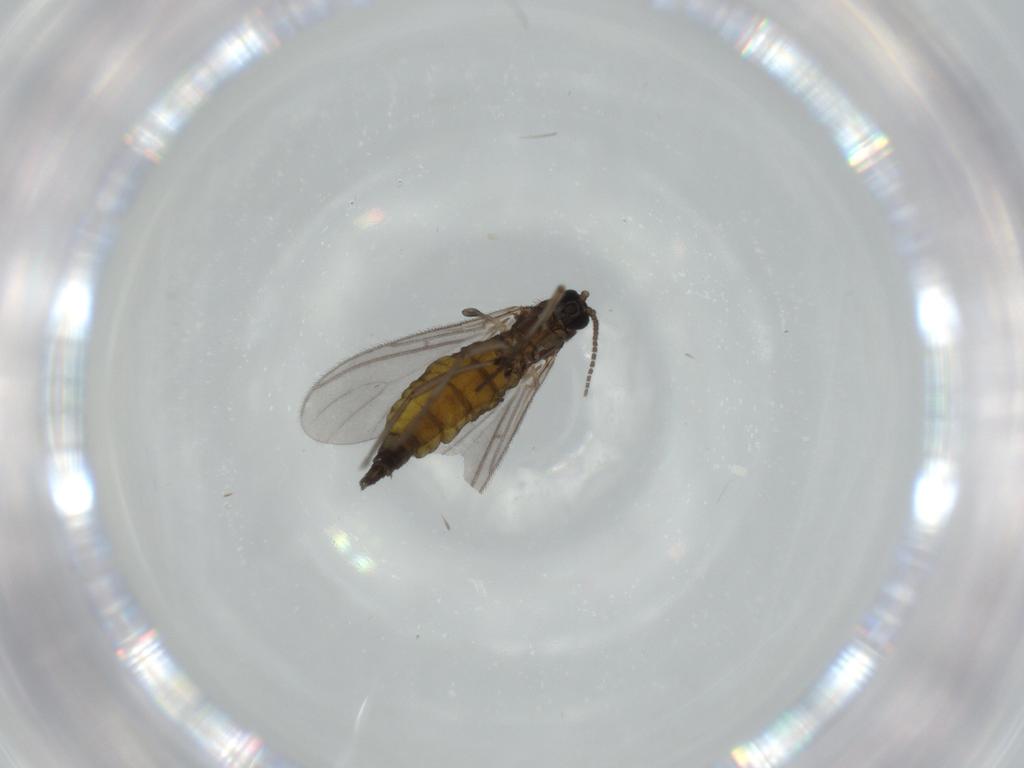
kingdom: Animalia
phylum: Arthropoda
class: Insecta
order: Diptera
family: Sciaridae
